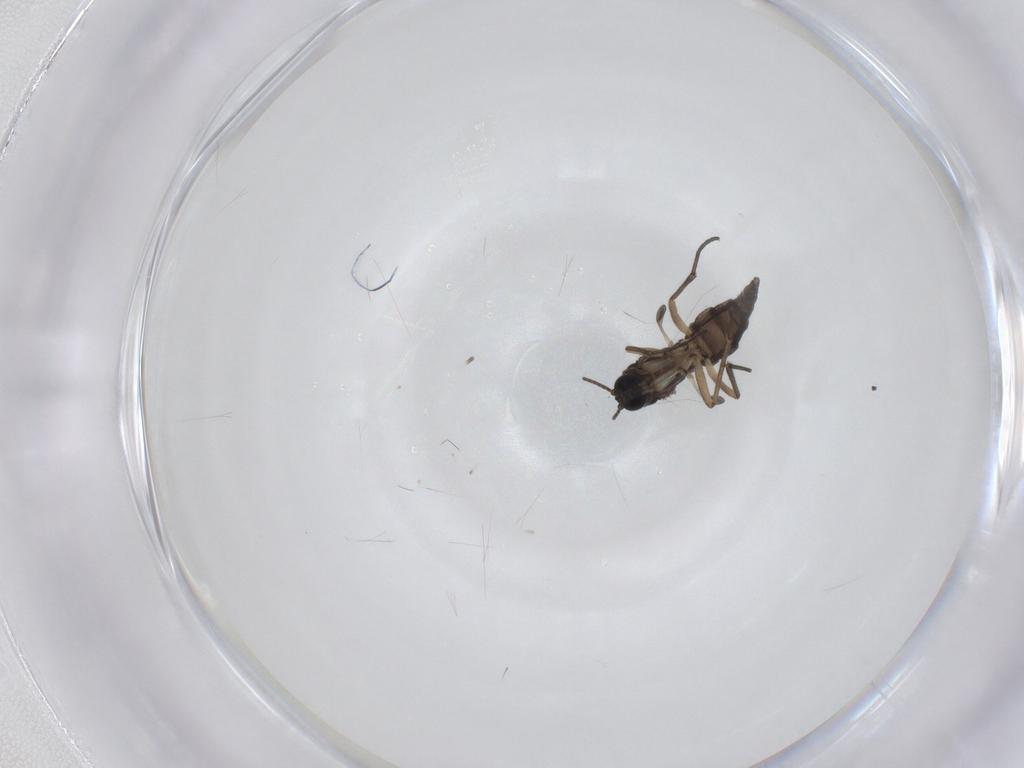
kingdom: Animalia
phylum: Arthropoda
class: Insecta
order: Diptera
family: Sciaridae
